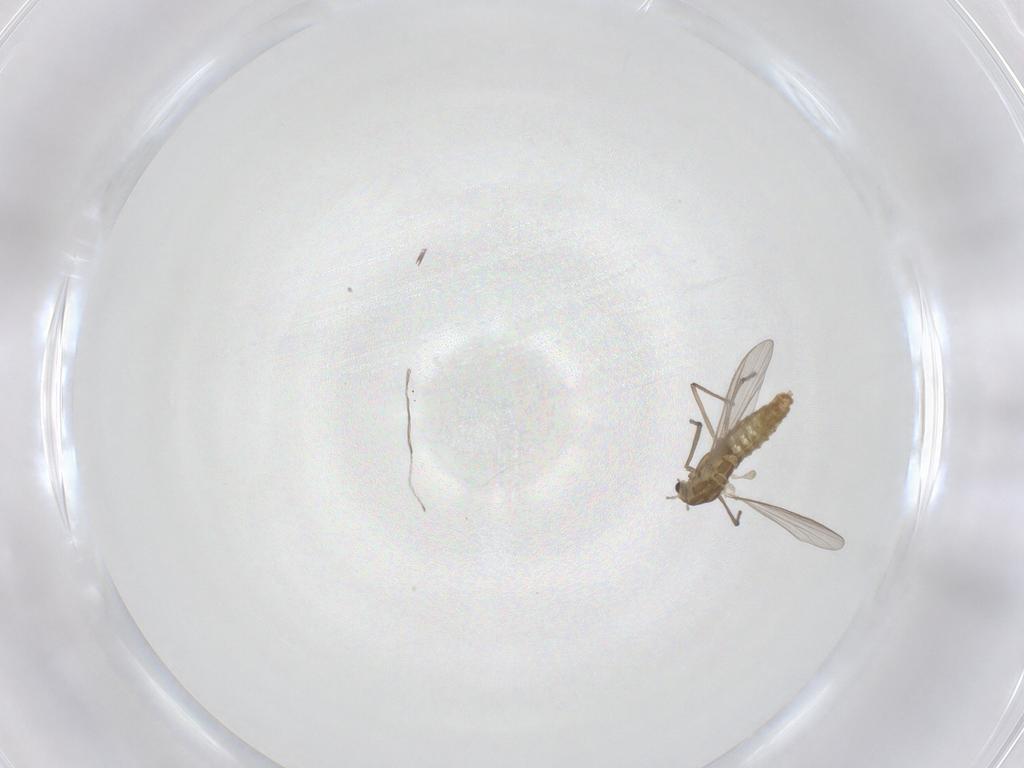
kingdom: Animalia
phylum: Arthropoda
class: Insecta
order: Diptera
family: Chironomidae
